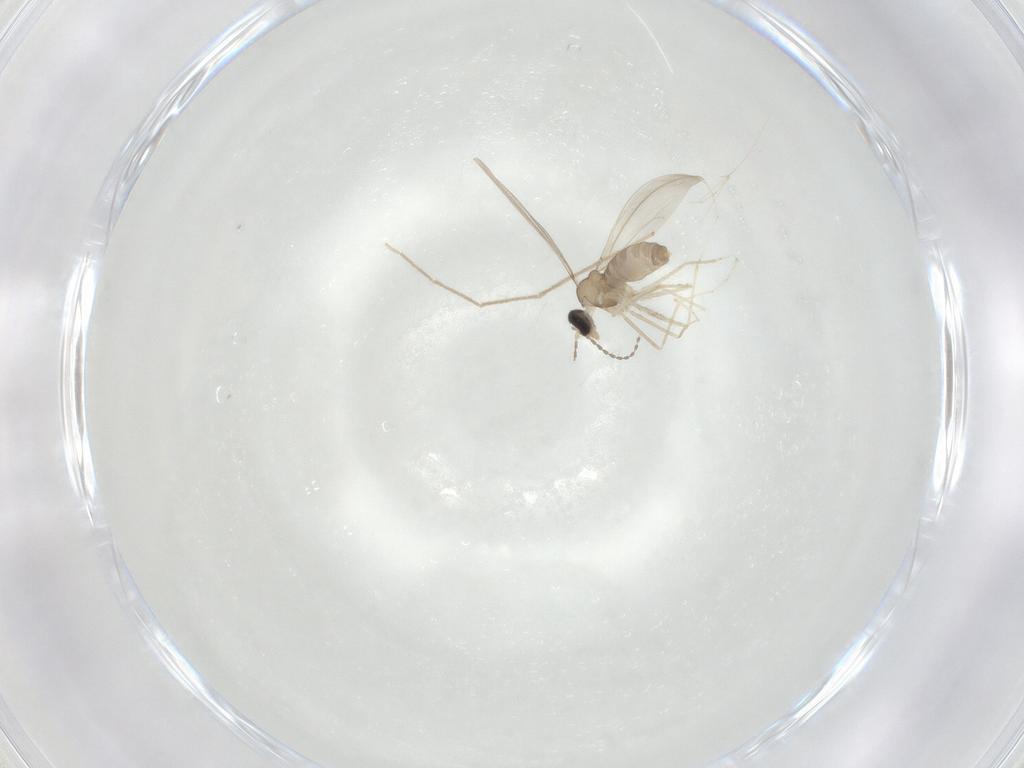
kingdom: Animalia
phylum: Arthropoda
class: Insecta
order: Diptera
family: Cecidomyiidae
